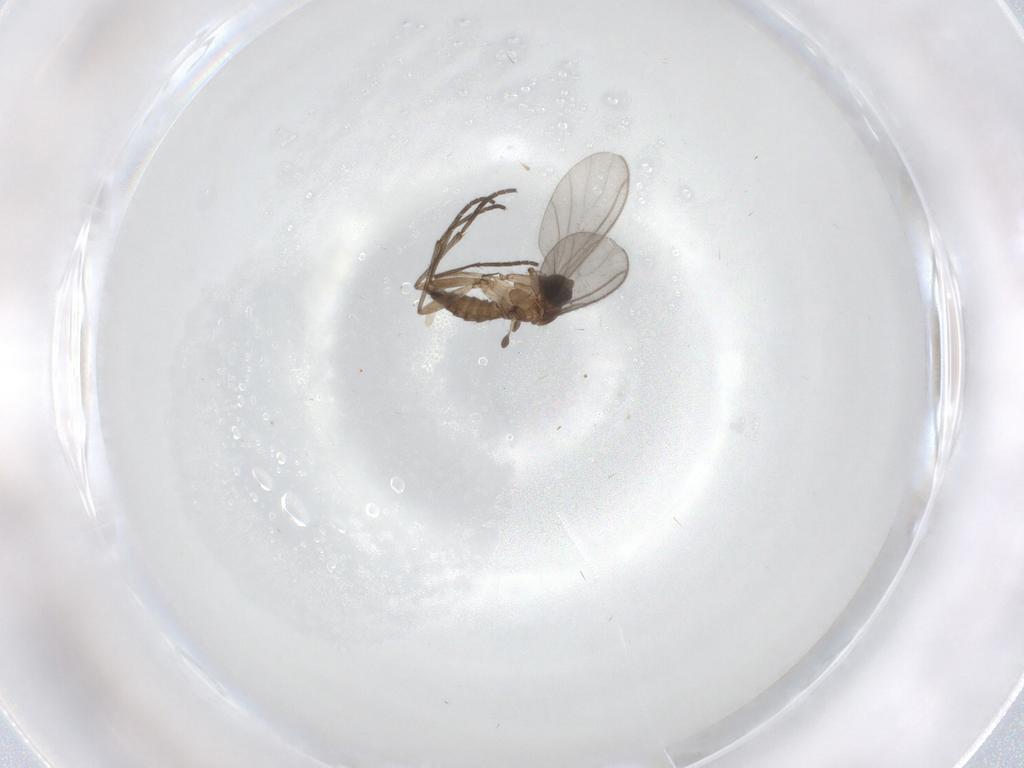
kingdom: Animalia
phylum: Arthropoda
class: Insecta
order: Diptera
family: Sciaridae
